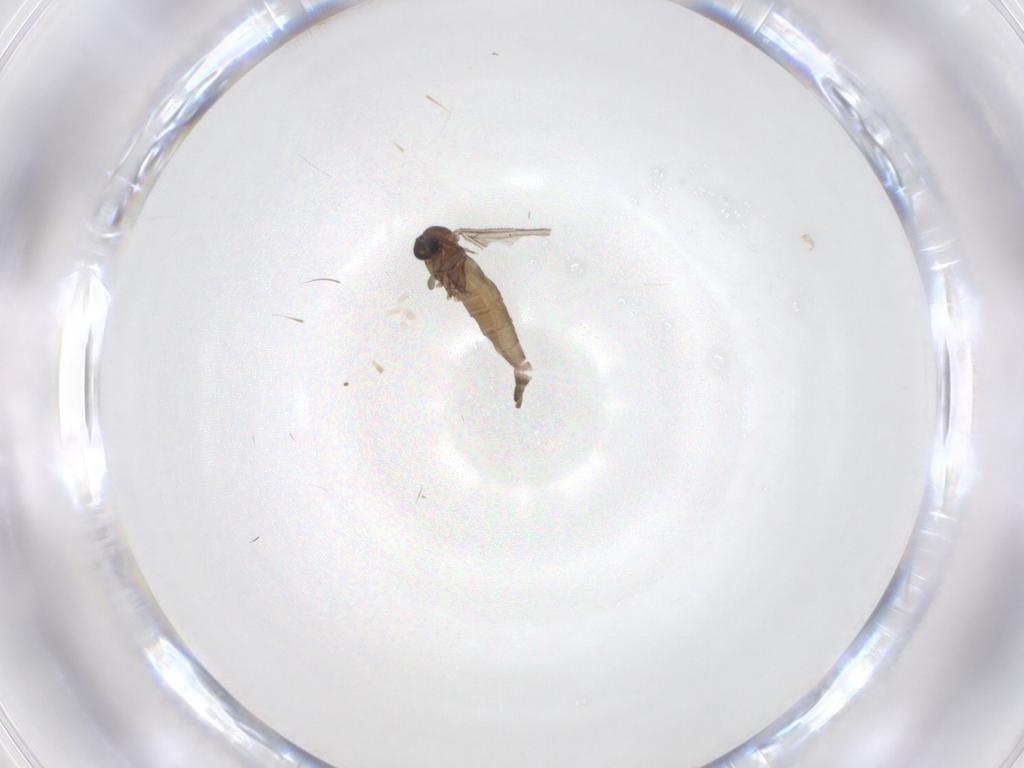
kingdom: Animalia
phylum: Arthropoda
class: Insecta
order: Diptera
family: Sciaridae
